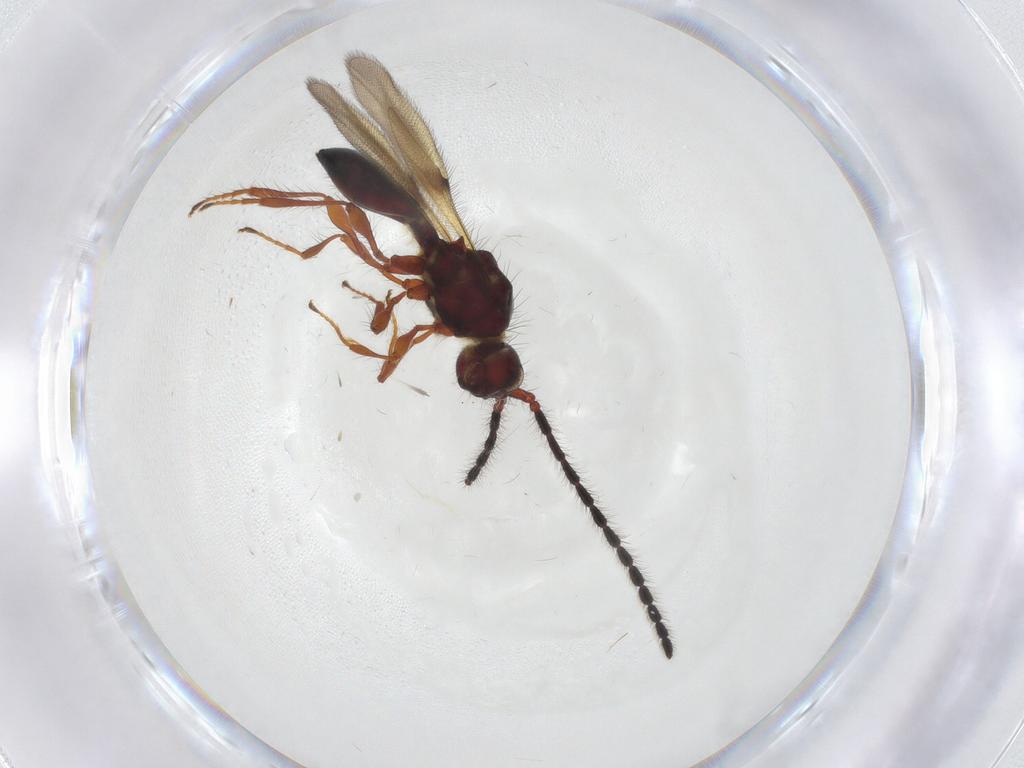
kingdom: Animalia
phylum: Arthropoda
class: Insecta
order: Hymenoptera
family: Diapriidae
